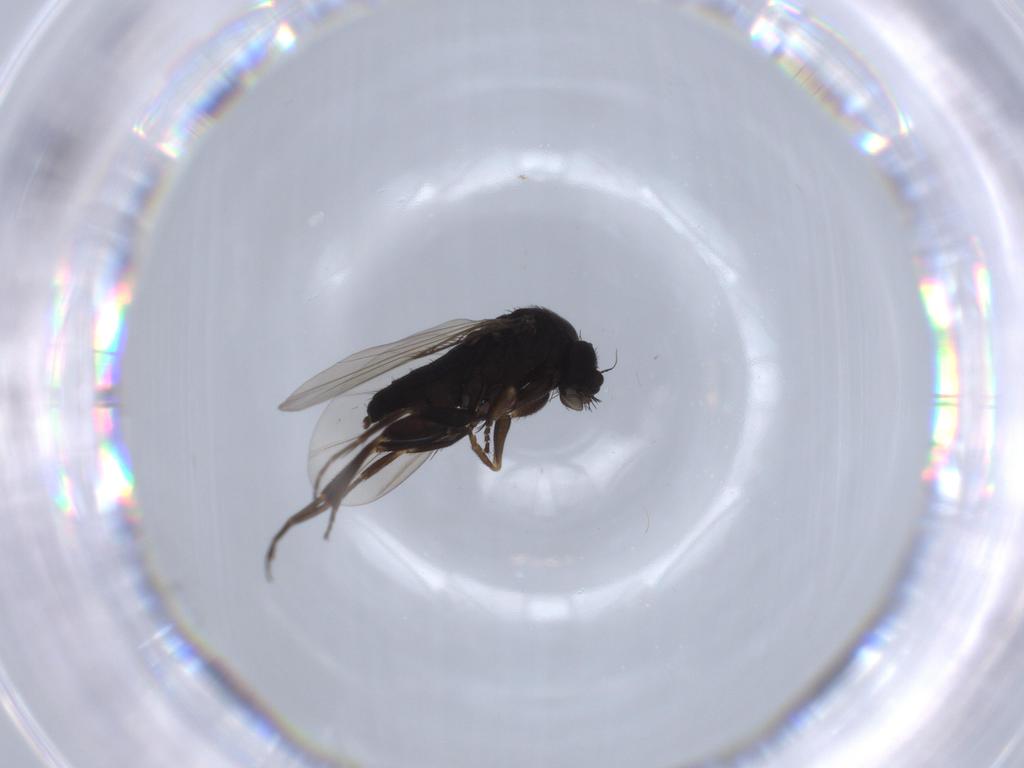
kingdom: Animalia
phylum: Arthropoda
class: Insecta
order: Diptera
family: Phoridae
